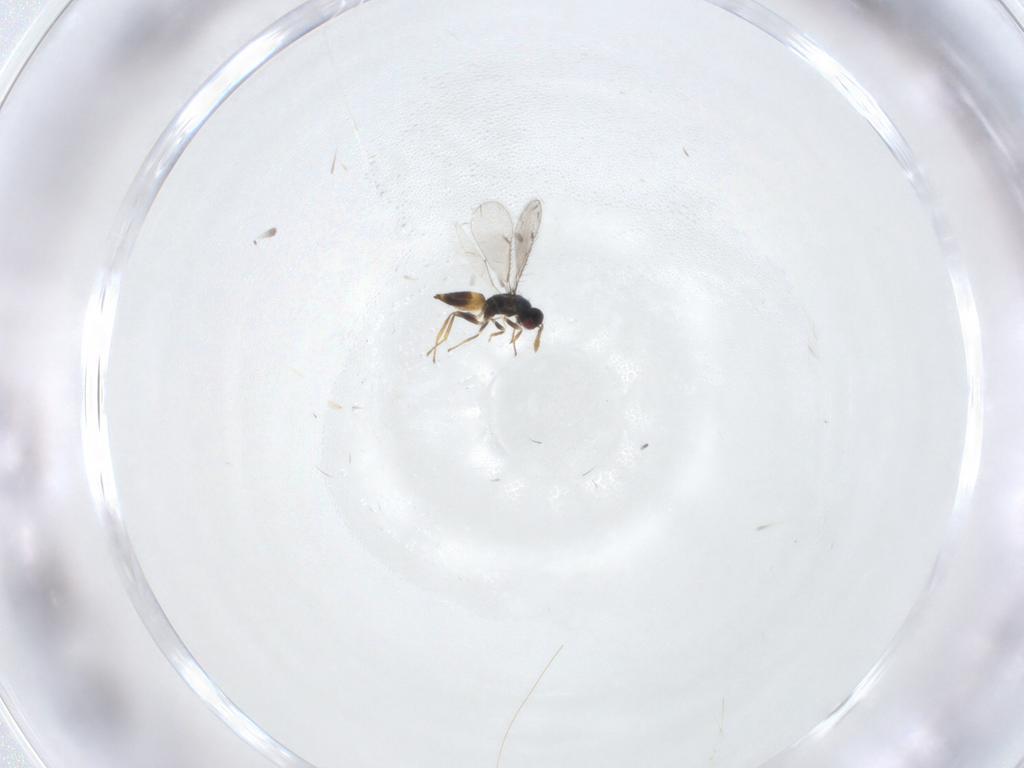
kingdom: Animalia
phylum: Arthropoda
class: Insecta
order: Hymenoptera
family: Eulophidae
